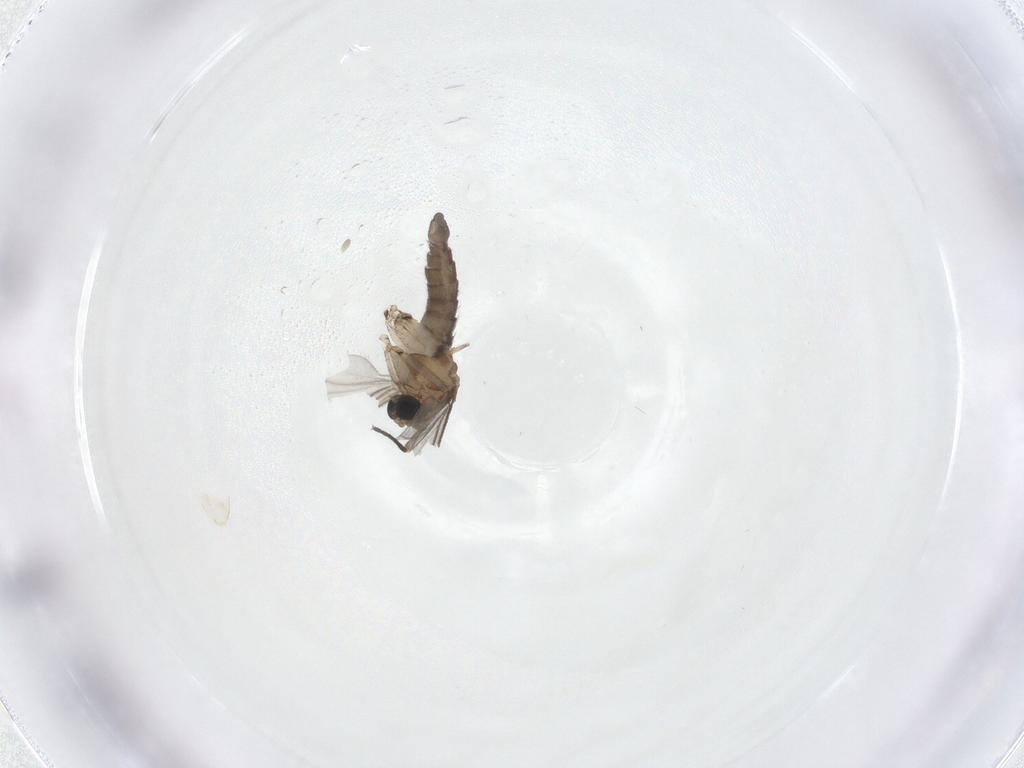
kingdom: Animalia
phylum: Arthropoda
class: Insecta
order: Diptera
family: Sciaridae
